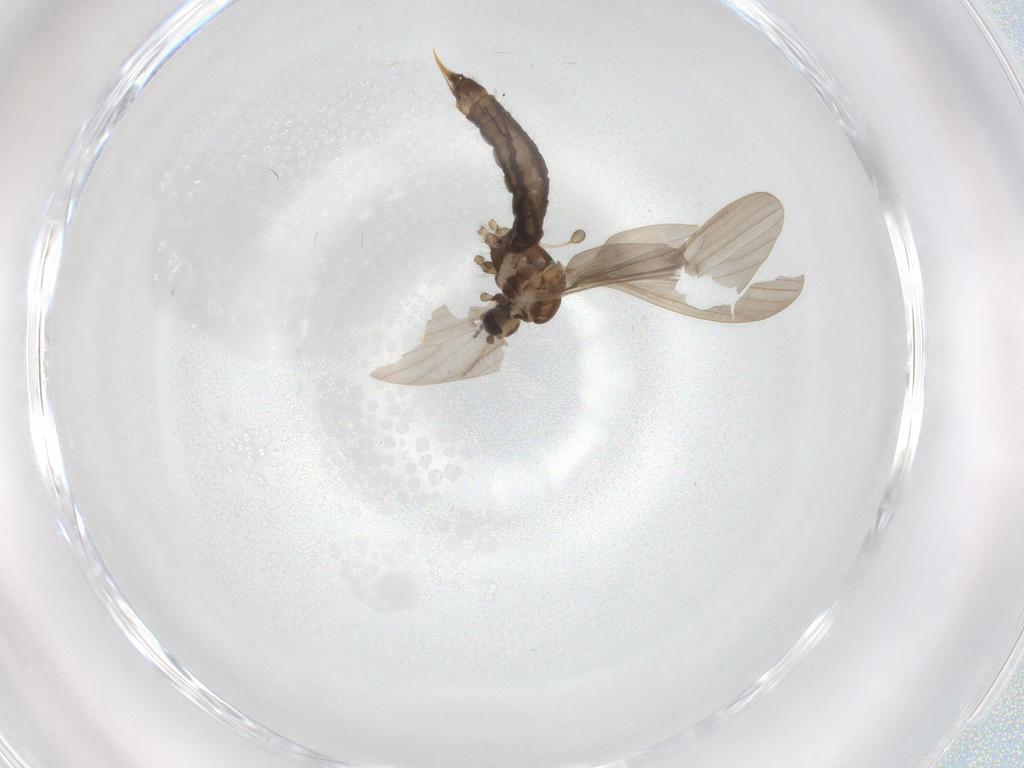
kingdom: Animalia
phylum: Arthropoda
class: Insecta
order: Diptera
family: Limoniidae
